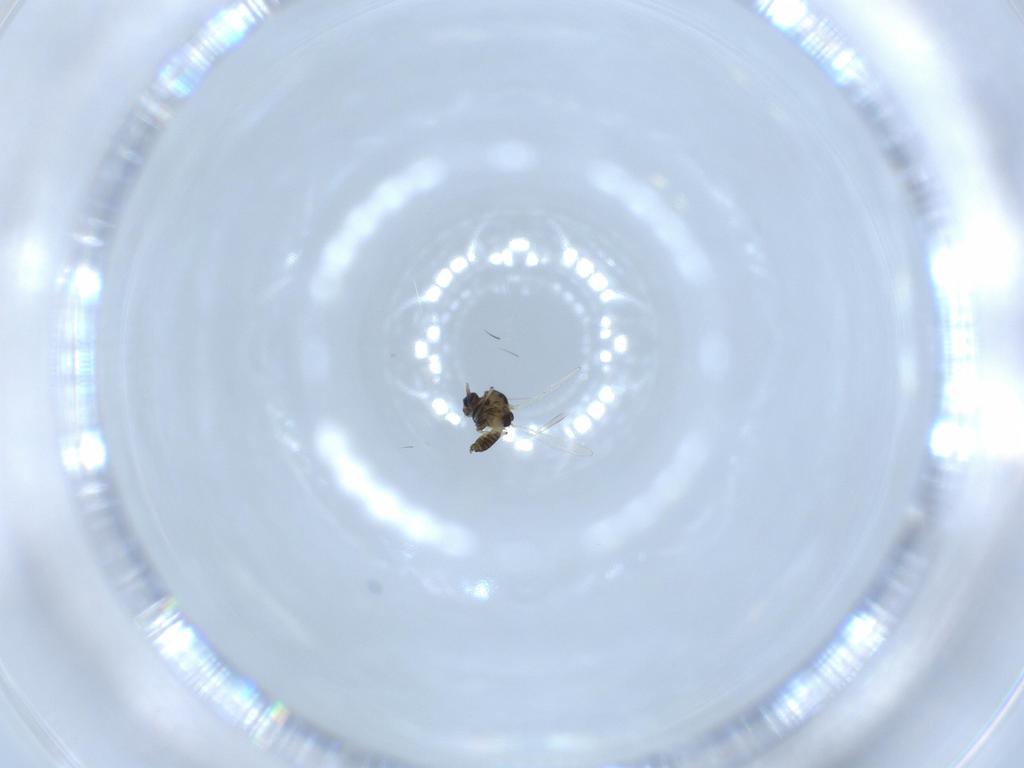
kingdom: Animalia
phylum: Arthropoda
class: Insecta
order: Diptera
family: Chironomidae
